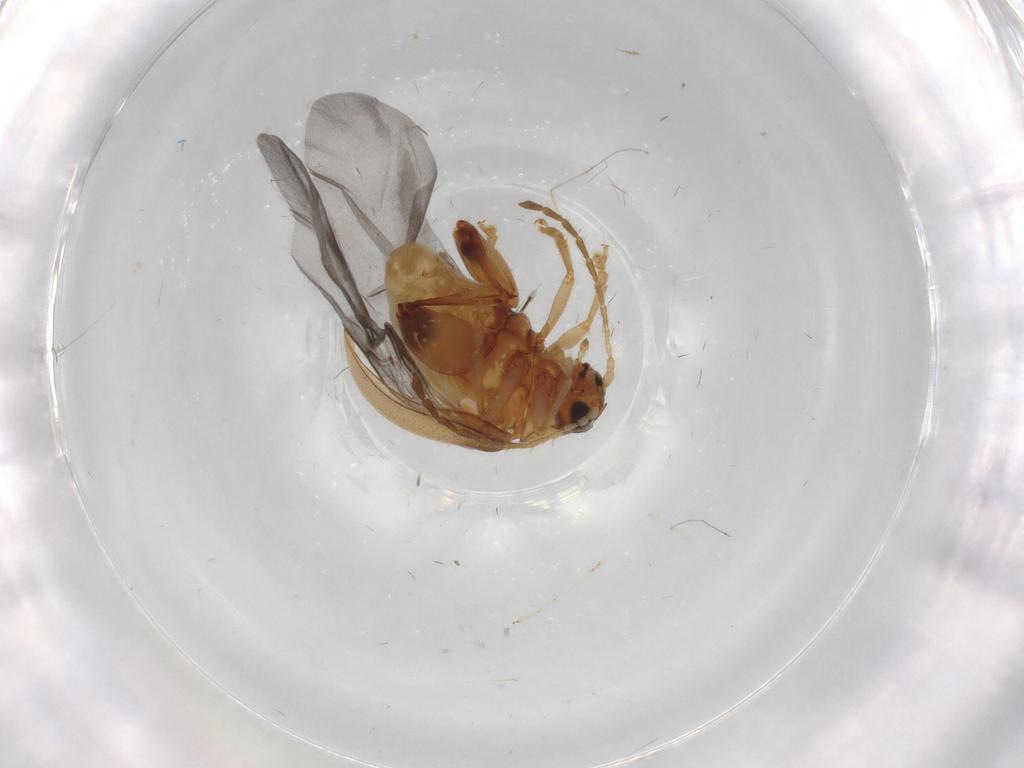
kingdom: Animalia
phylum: Arthropoda
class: Insecta
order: Coleoptera
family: Chrysomelidae
